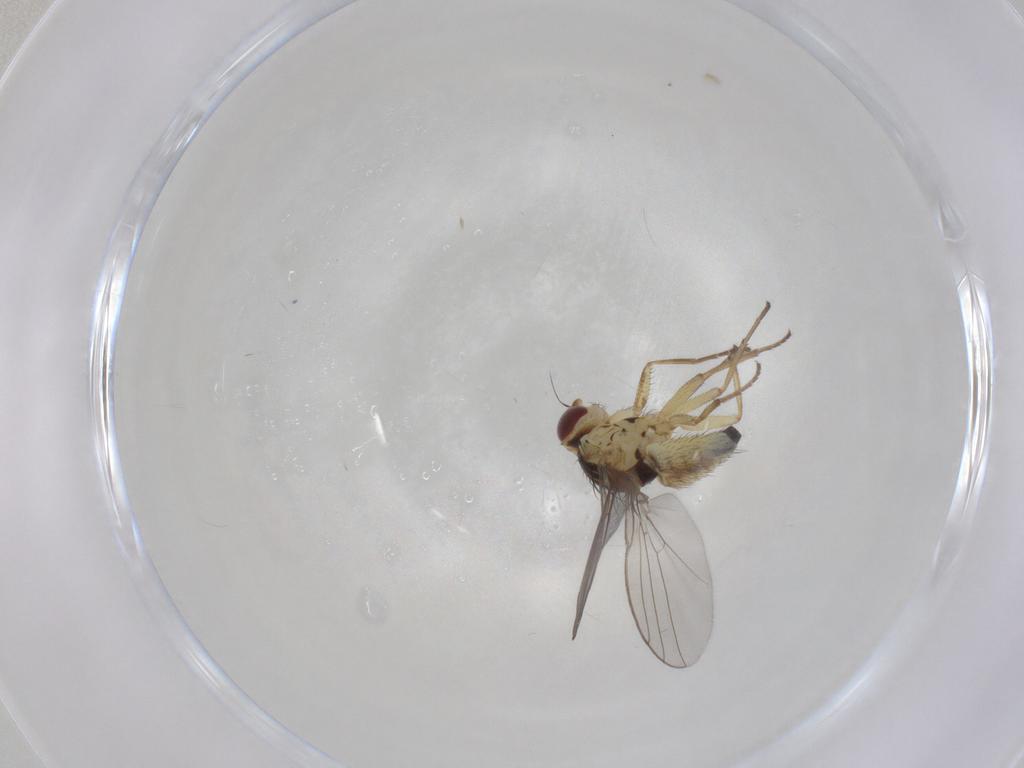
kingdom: Animalia
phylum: Arthropoda
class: Insecta
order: Diptera
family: Agromyzidae
